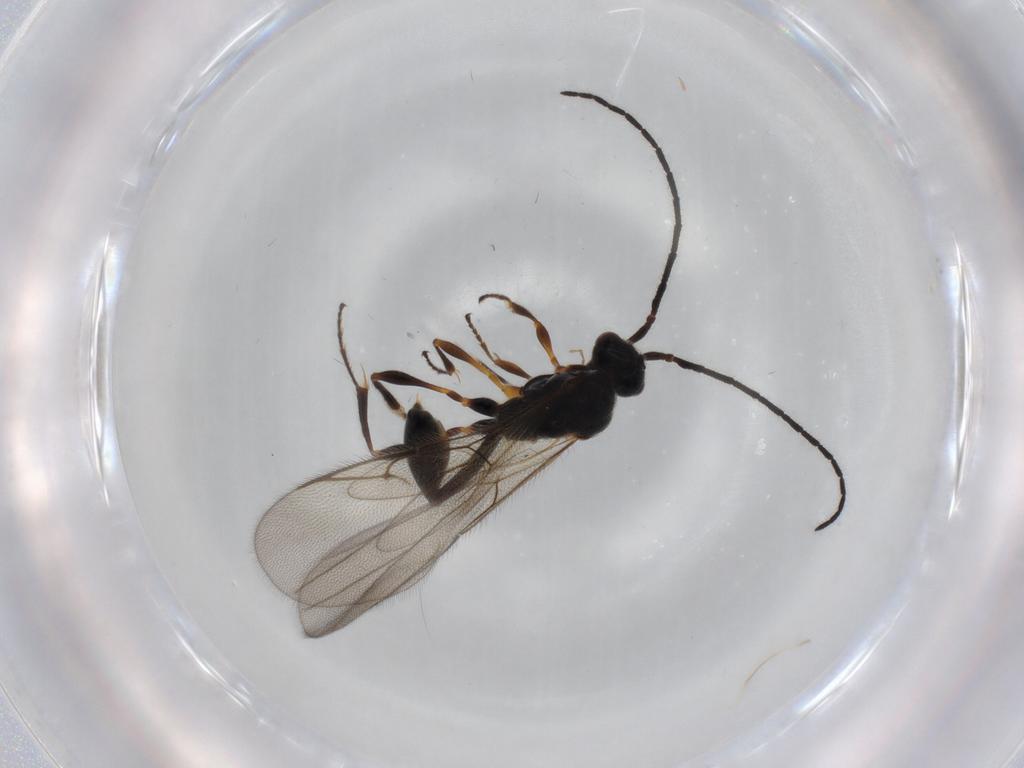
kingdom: Animalia
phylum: Arthropoda
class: Insecta
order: Hymenoptera
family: Diapriidae
